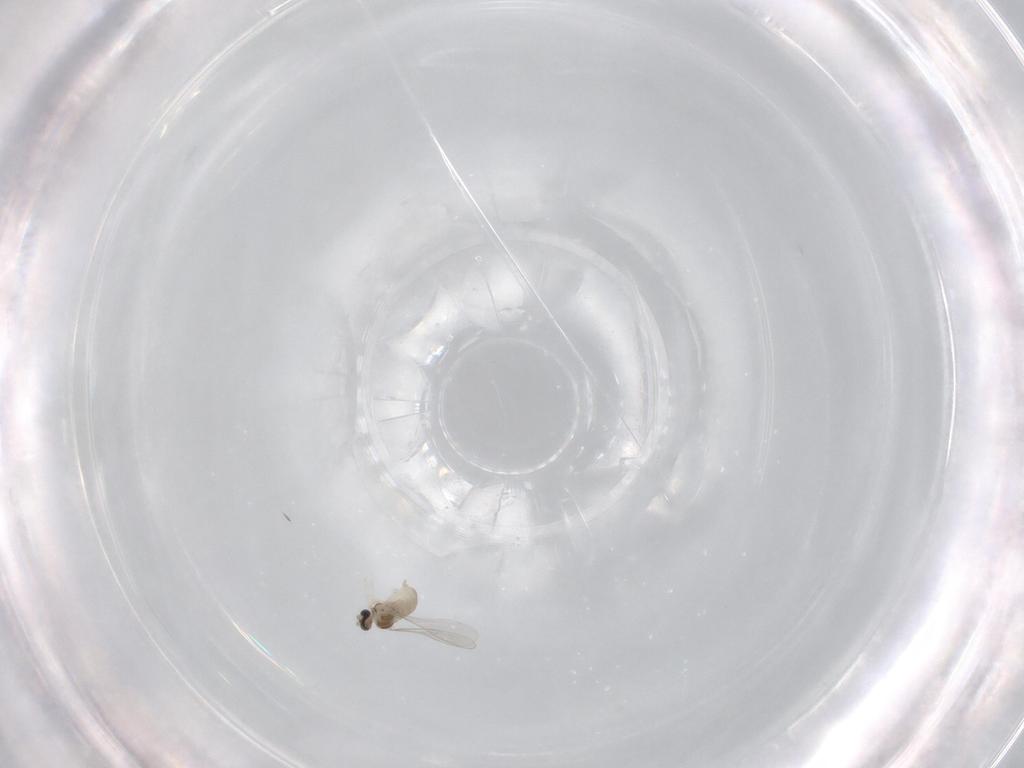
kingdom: Animalia
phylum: Arthropoda
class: Insecta
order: Diptera
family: Cecidomyiidae
